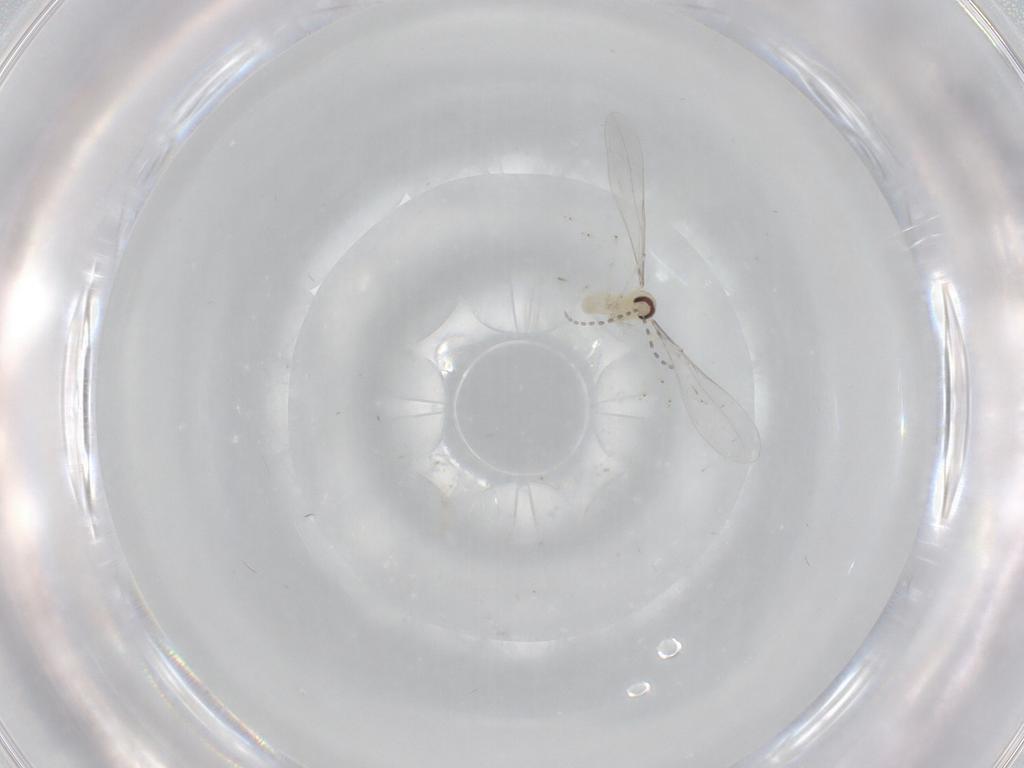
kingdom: Animalia
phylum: Arthropoda
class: Insecta
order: Diptera
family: Cecidomyiidae
